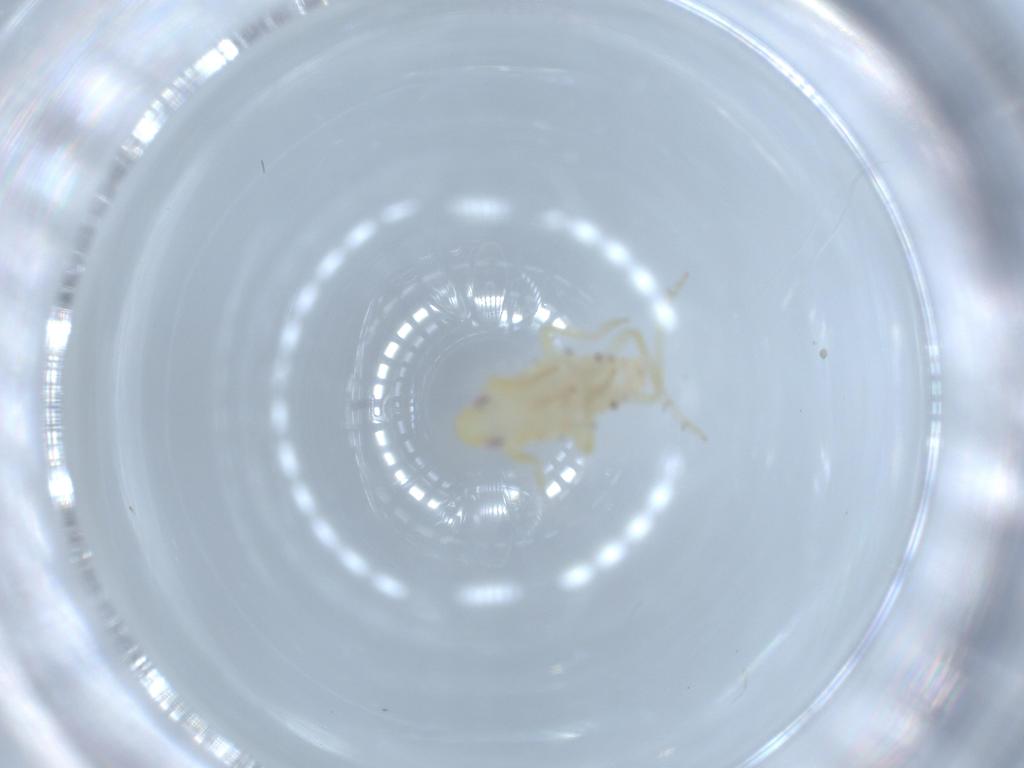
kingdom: Animalia
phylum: Arthropoda
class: Insecta
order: Hemiptera
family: Tropiduchidae
